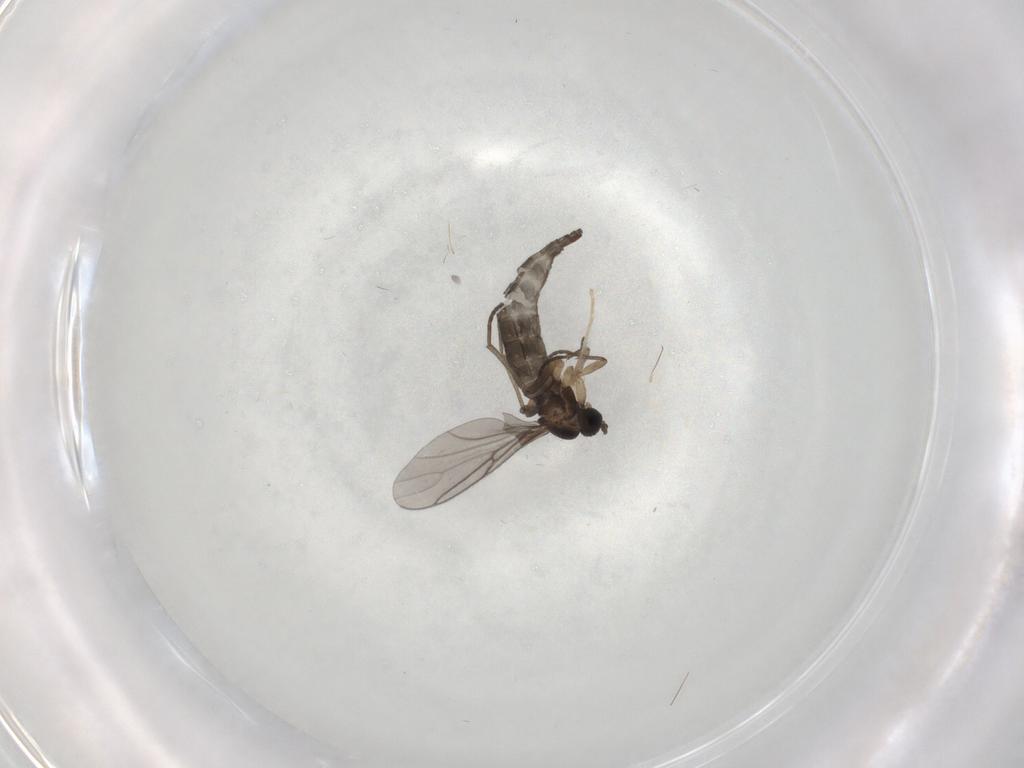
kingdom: Animalia
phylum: Arthropoda
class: Insecta
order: Diptera
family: Sciaridae
